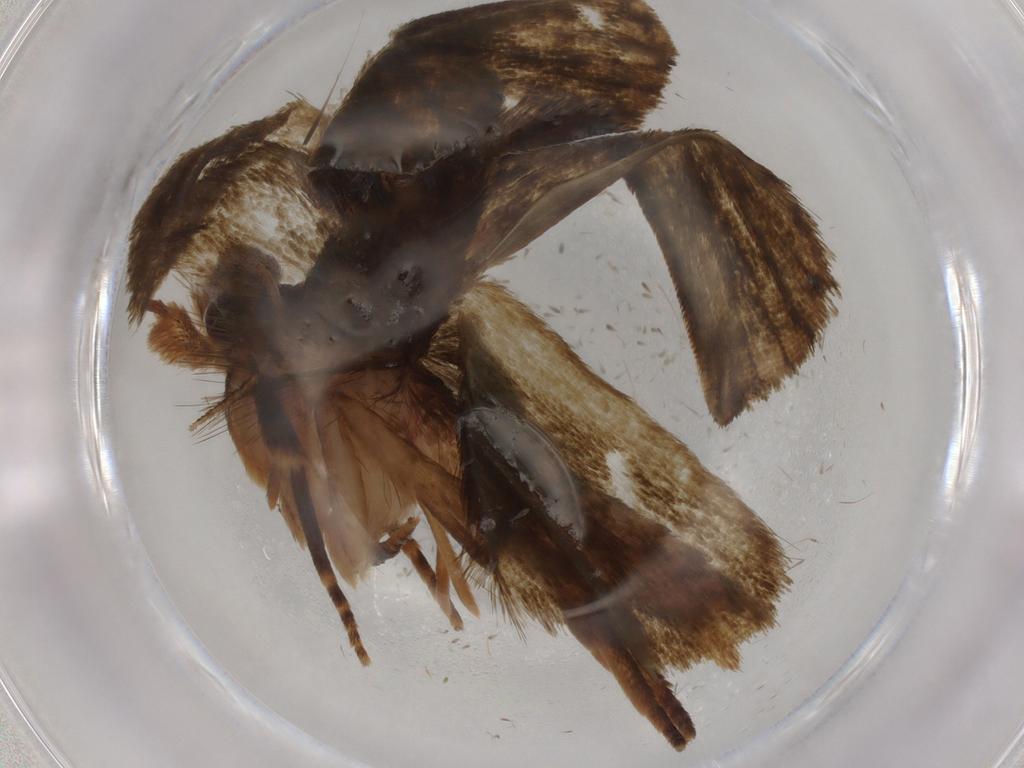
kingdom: Animalia
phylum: Arthropoda
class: Insecta
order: Lepidoptera
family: Geometridae
